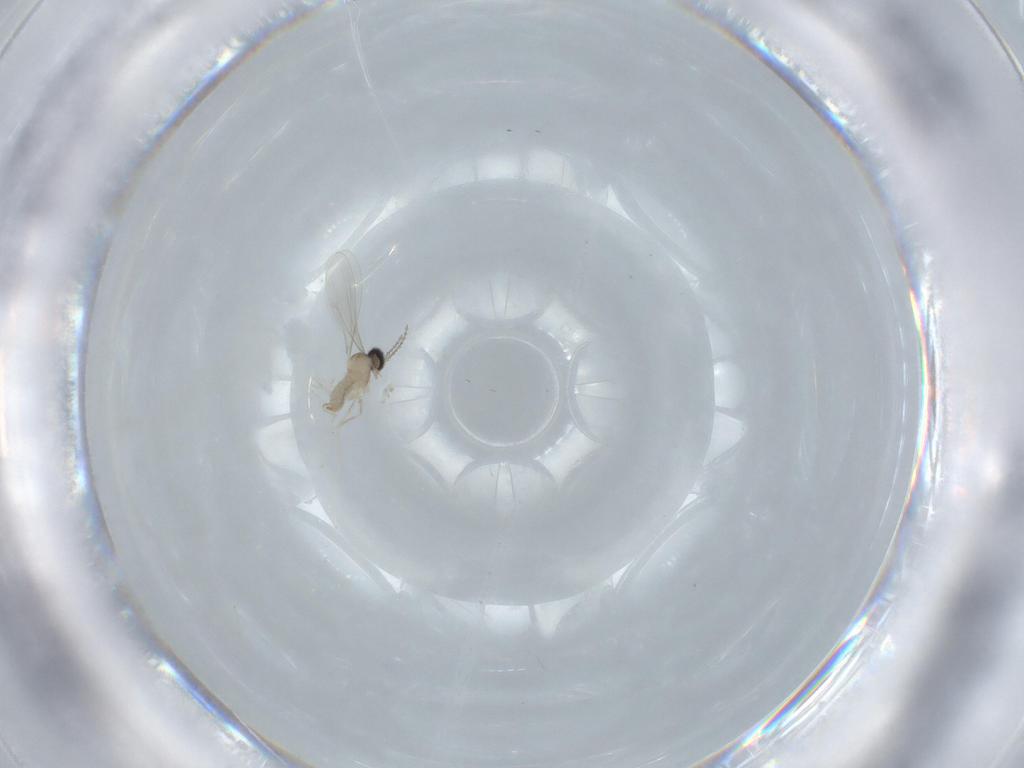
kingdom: Animalia
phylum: Arthropoda
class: Insecta
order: Diptera
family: Cecidomyiidae
